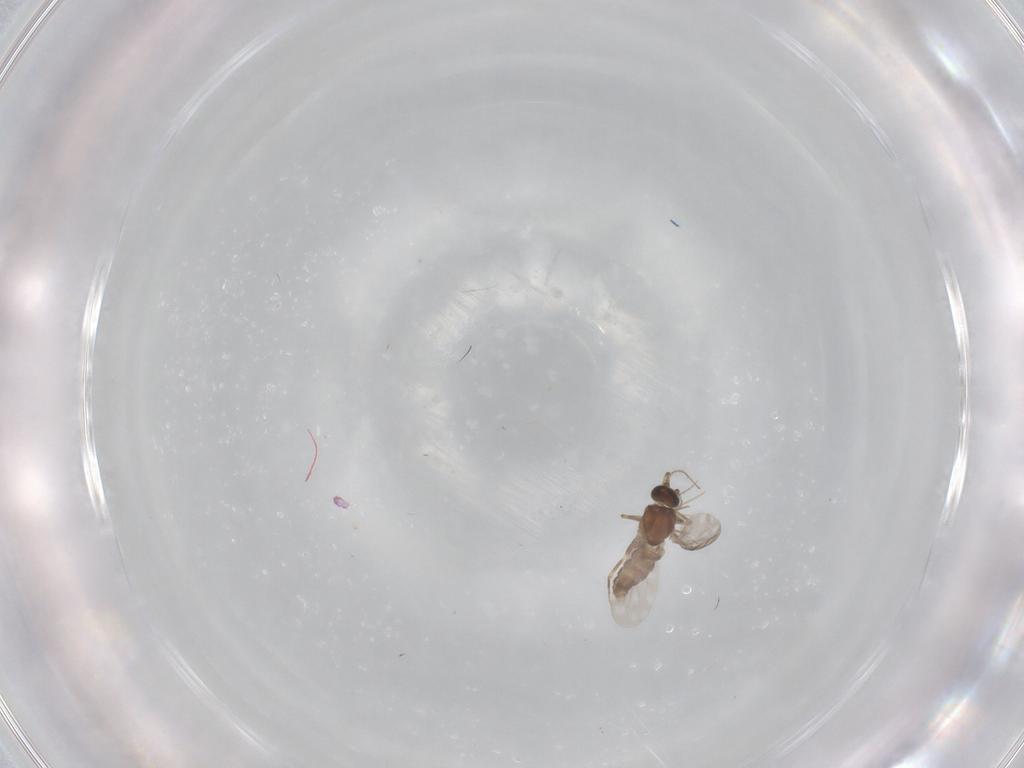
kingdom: Animalia
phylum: Arthropoda
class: Insecta
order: Diptera
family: Ceratopogonidae
